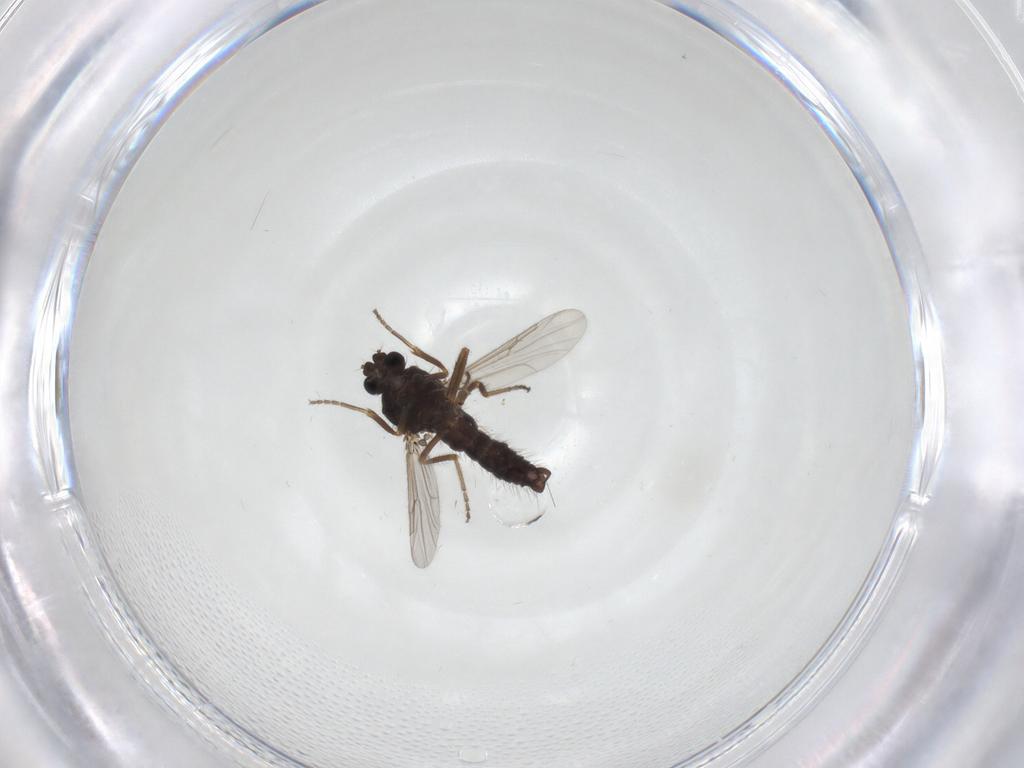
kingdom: Animalia
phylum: Arthropoda
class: Insecta
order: Diptera
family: Ceratopogonidae
